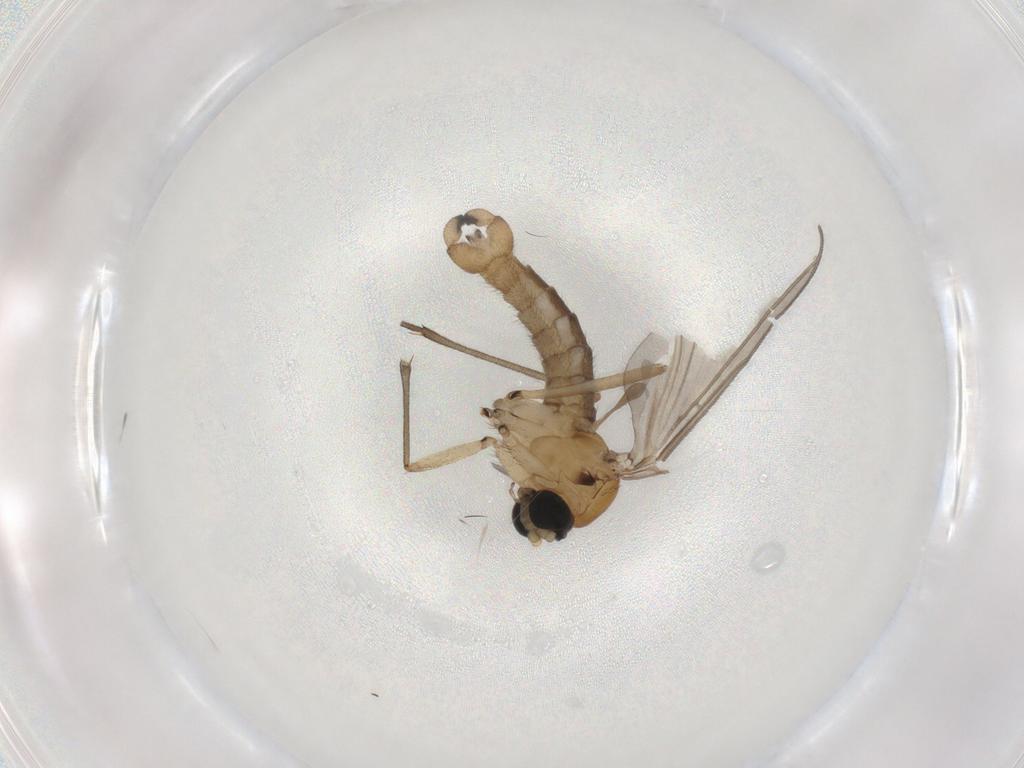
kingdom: Animalia
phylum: Arthropoda
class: Insecta
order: Diptera
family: Sciaridae
